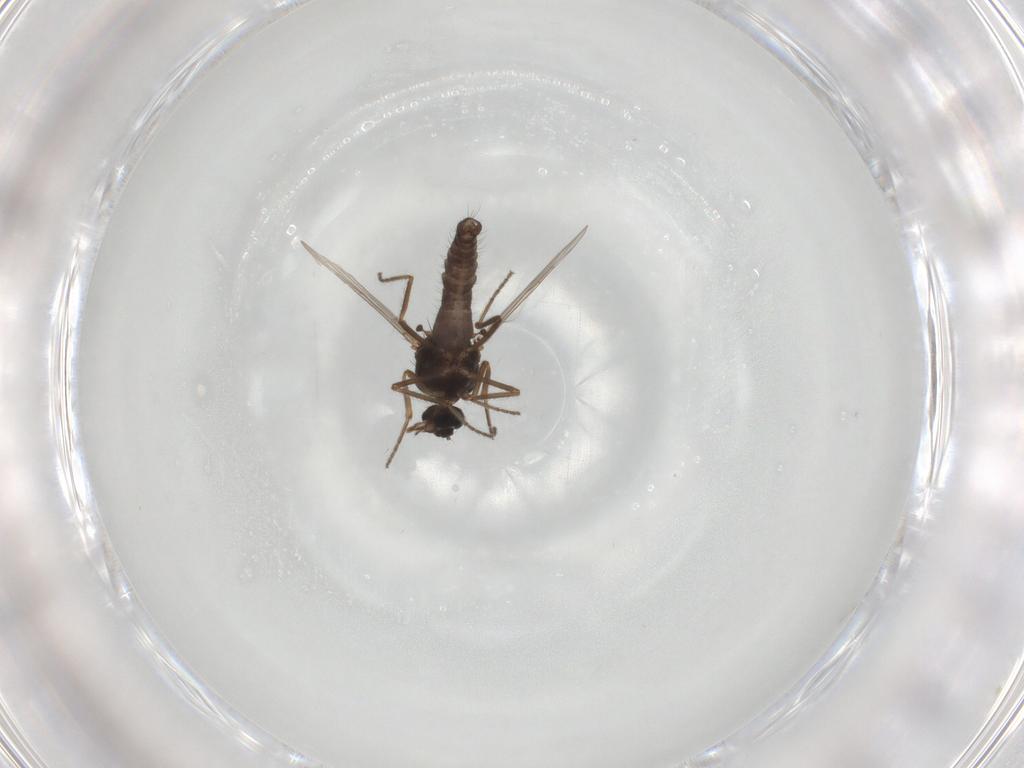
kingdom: Animalia
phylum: Arthropoda
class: Insecta
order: Diptera
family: Ceratopogonidae
